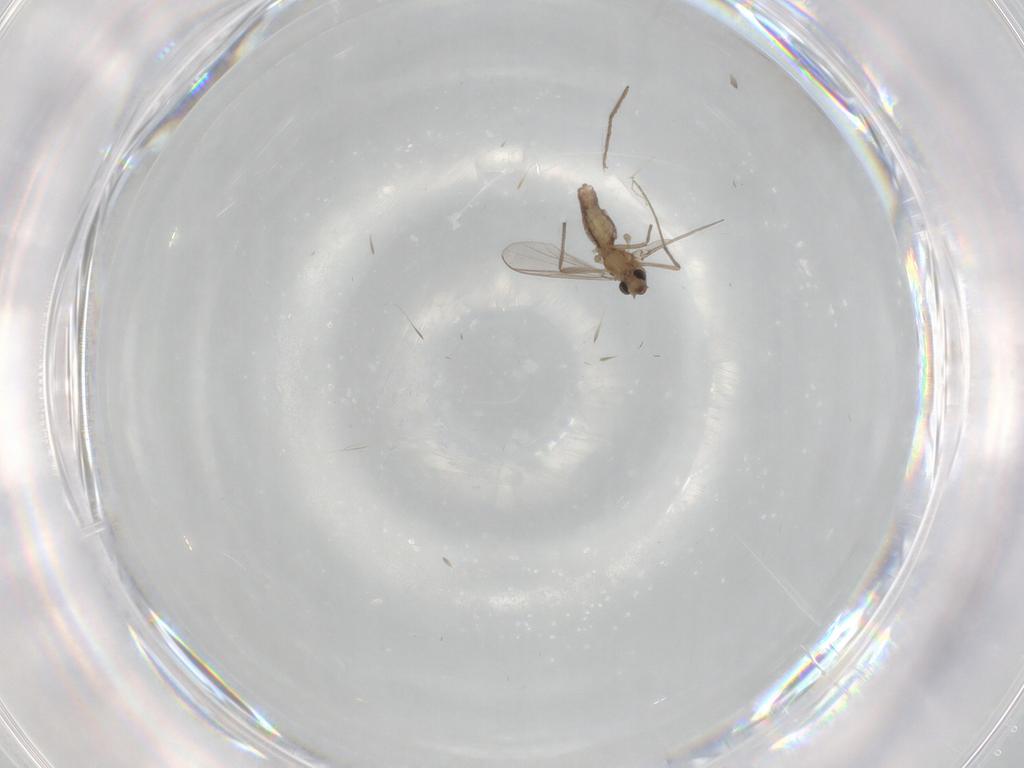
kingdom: Animalia
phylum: Arthropoda
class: Insecta
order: Diptera
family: Chironomidae
